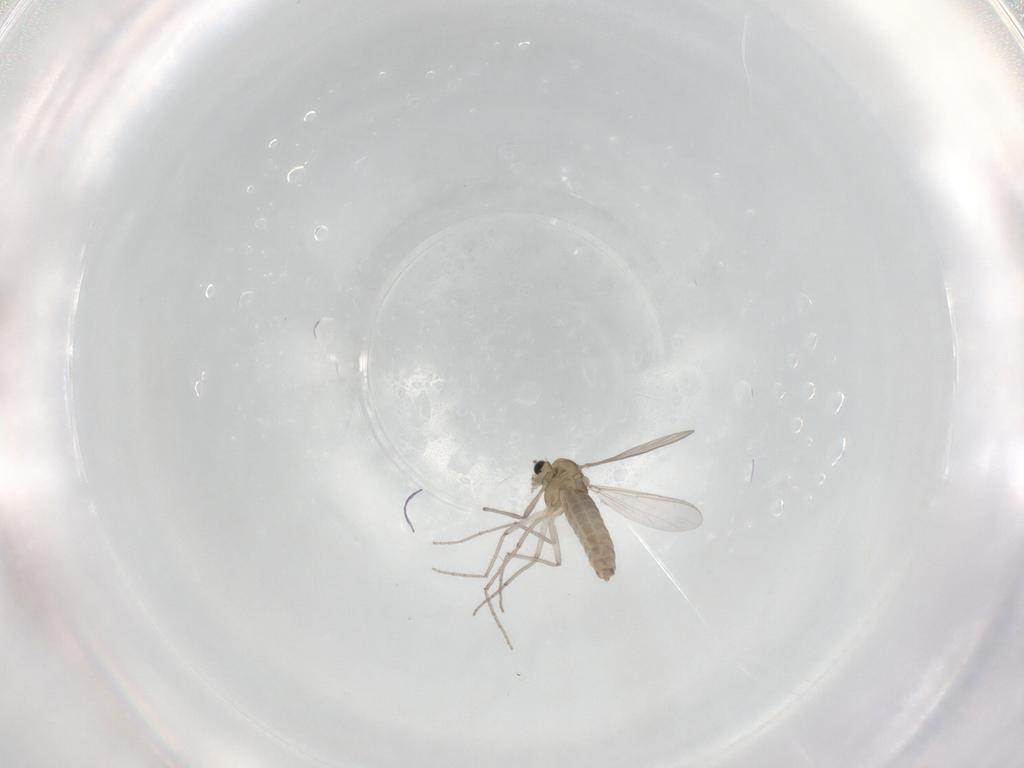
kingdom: Animalia
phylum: Arthropoda
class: Insecta
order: Diptera
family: Chironomidae
